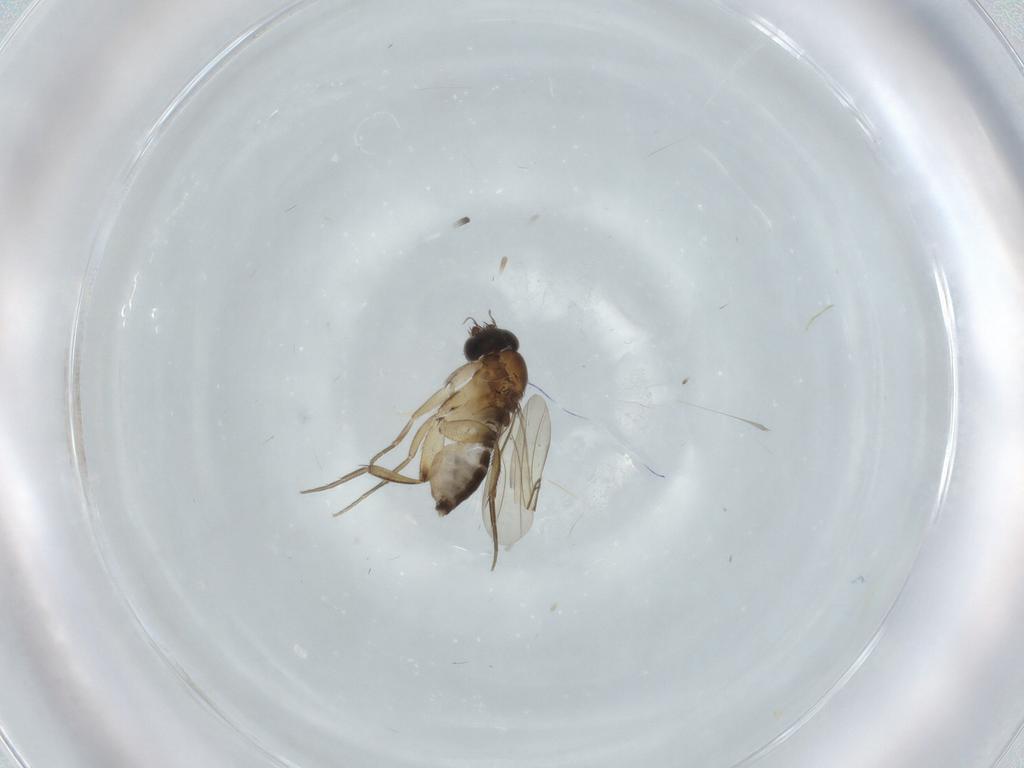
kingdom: Animalia
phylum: Arthropoda
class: Insecta
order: Diptera
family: Phoridae
